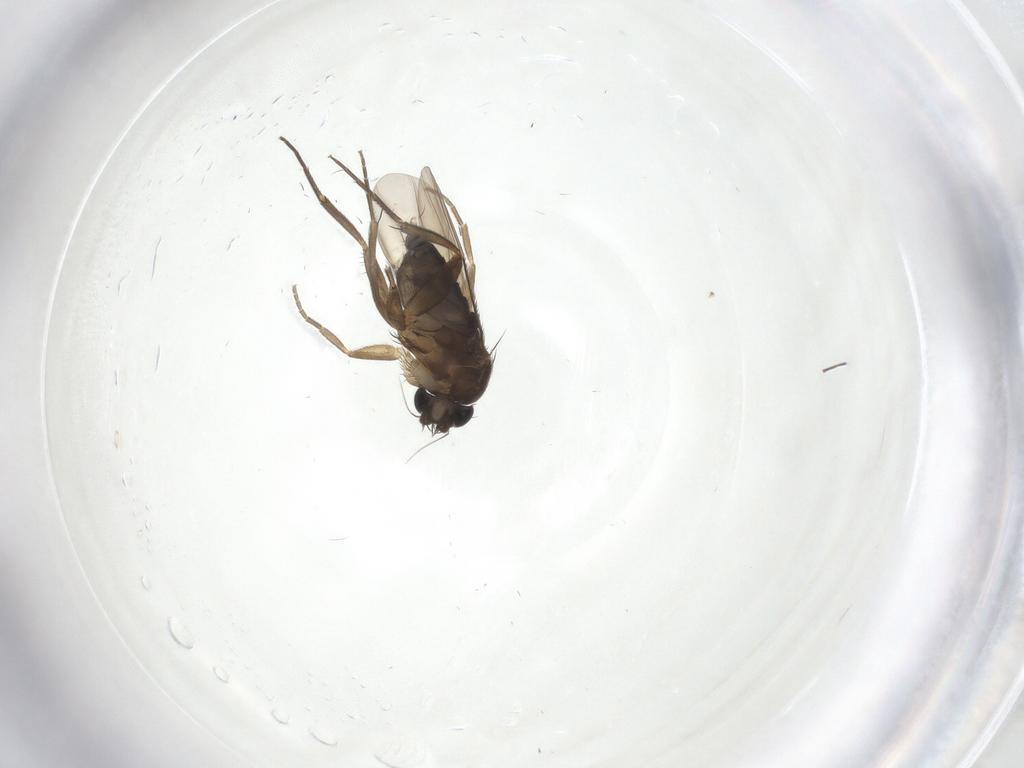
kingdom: Animalia
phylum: Arthropoda
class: Insecta
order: Diptera
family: Phoridae
